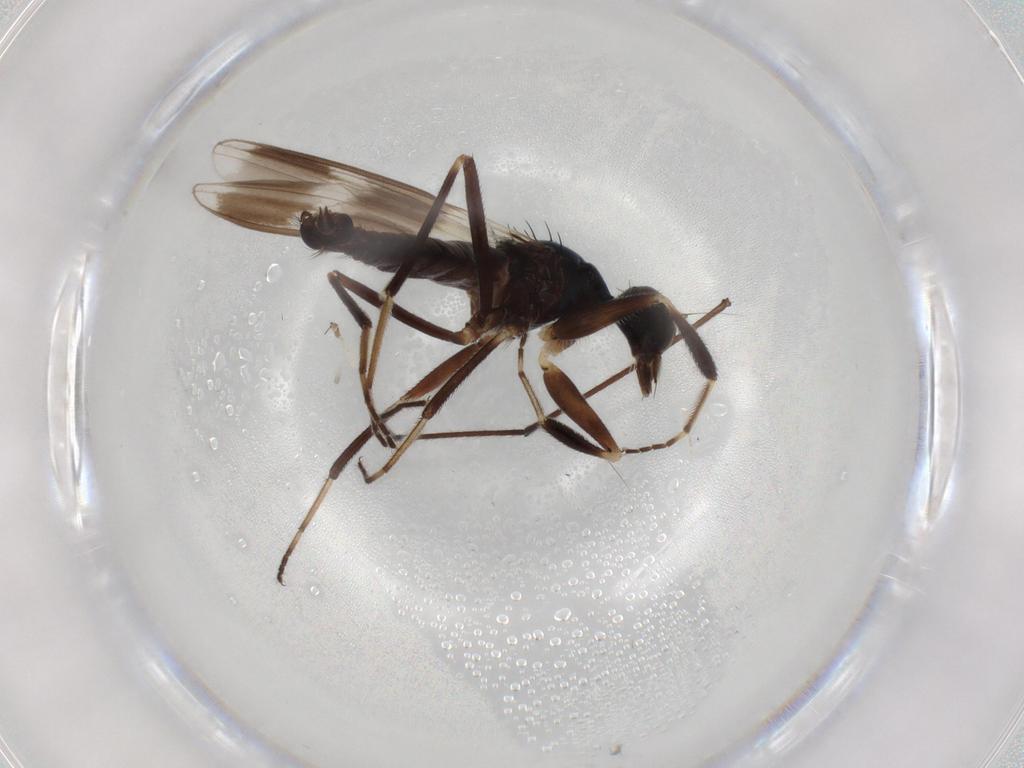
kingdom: Animalia
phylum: Arthropoda
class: Insecta
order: Diptera
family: Hybotidae
